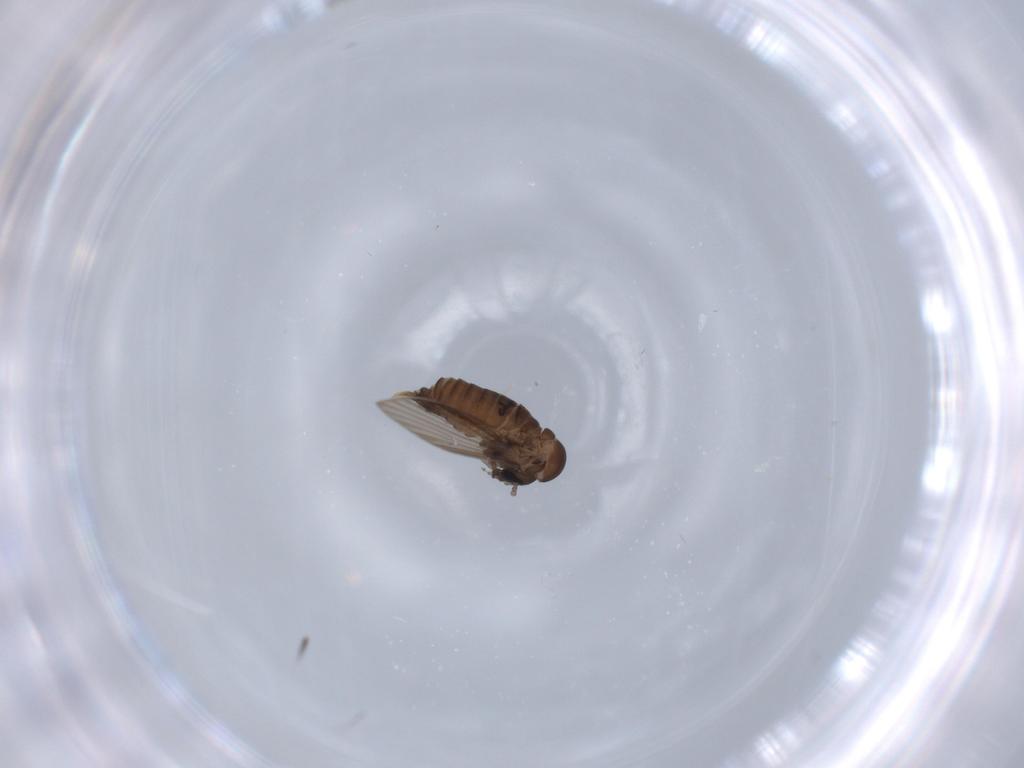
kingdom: Animalia
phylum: Arthropoda
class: Insecta
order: Diptera
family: Psychodidae
